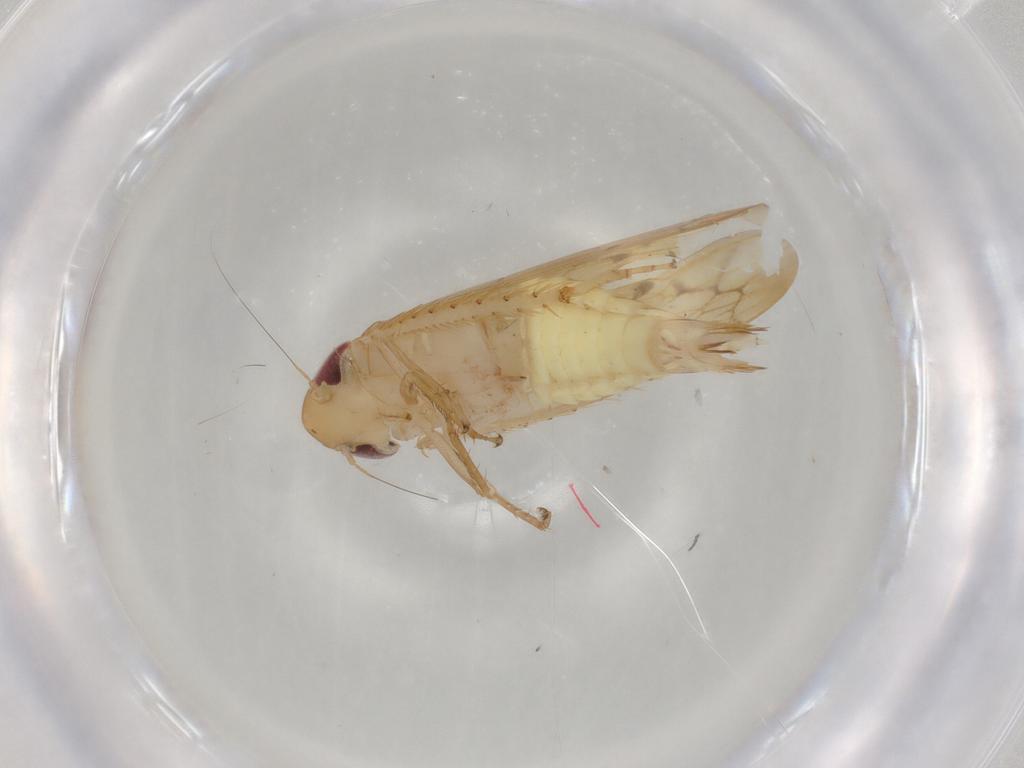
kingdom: Animalia
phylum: Arthropoda
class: Insecta
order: Hemiptera
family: Cicadellidae
